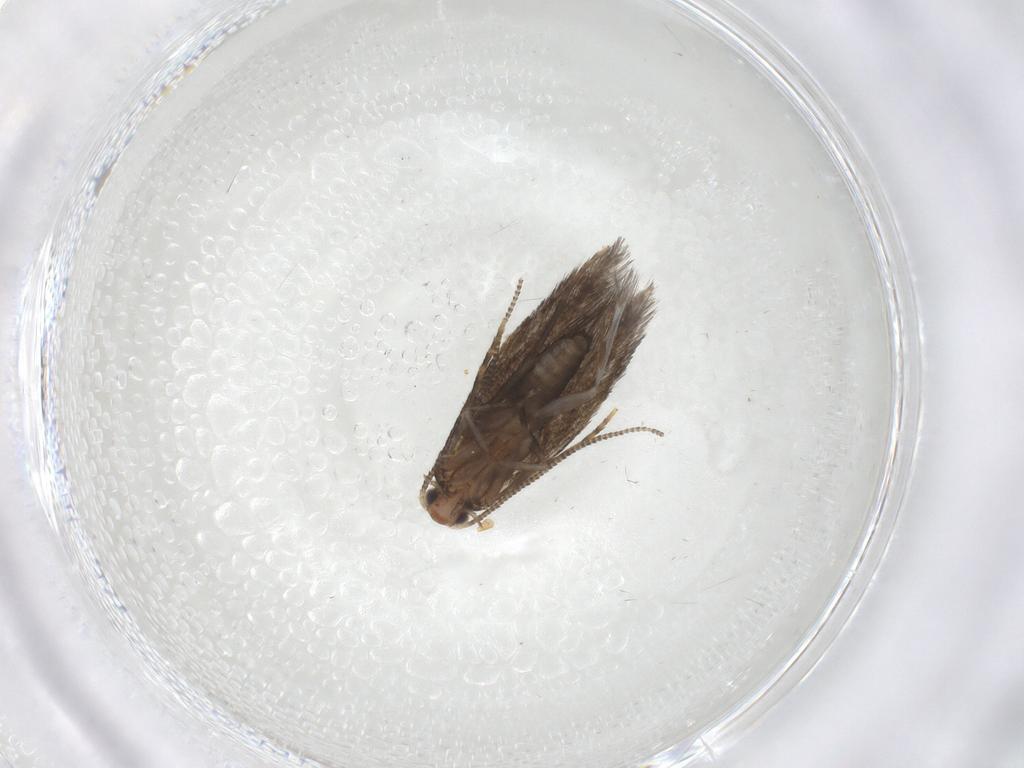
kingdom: Animalia
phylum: Arthropoda
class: Insecta
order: Lepidoptera
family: Tineidae
